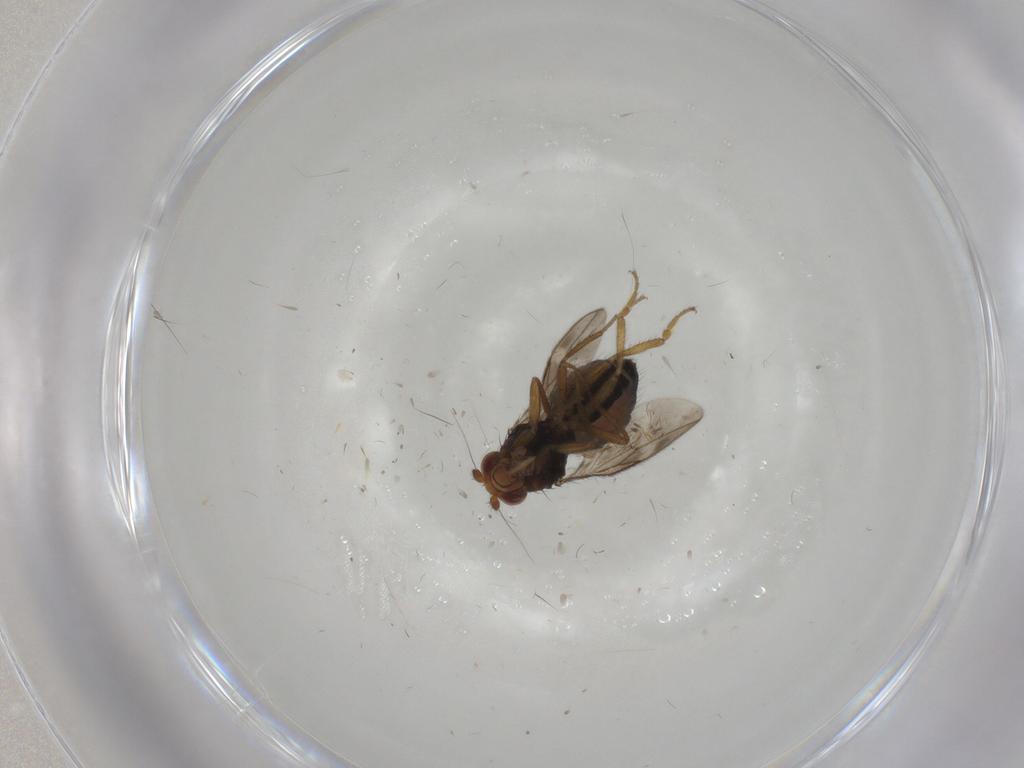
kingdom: Animalia
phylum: Arthropoda
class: Insecta
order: Diptera
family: Sphaeroceridae
